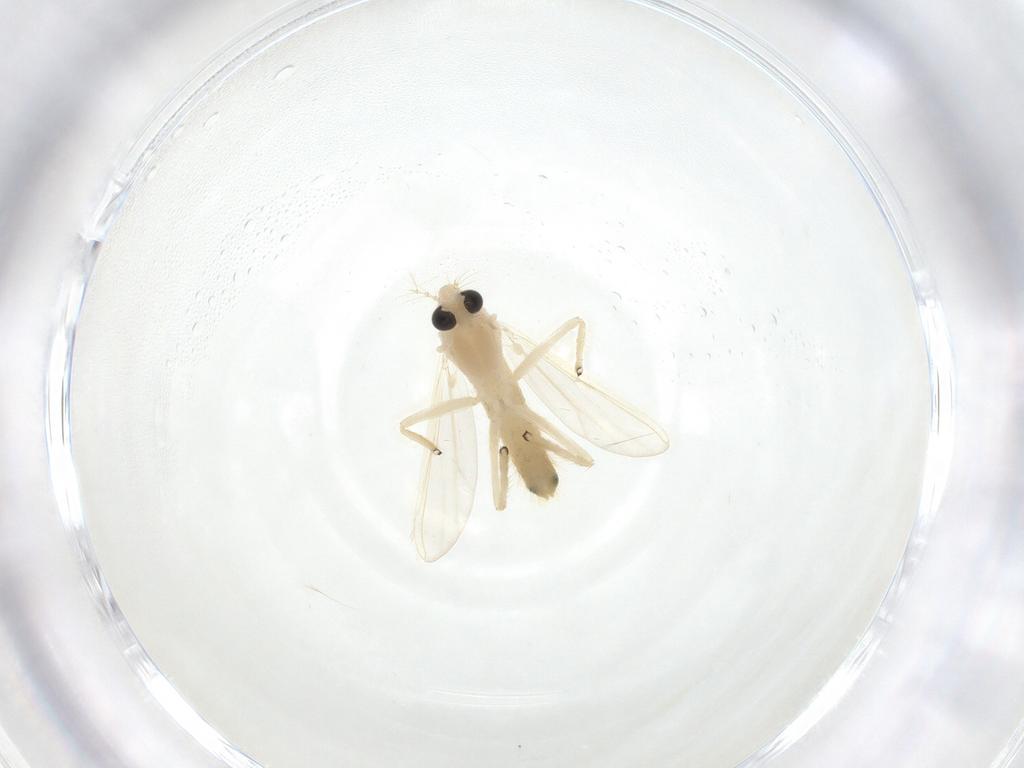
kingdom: Animalia
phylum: Arthropoda
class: Insecta
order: Diptera
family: Chironomidae
